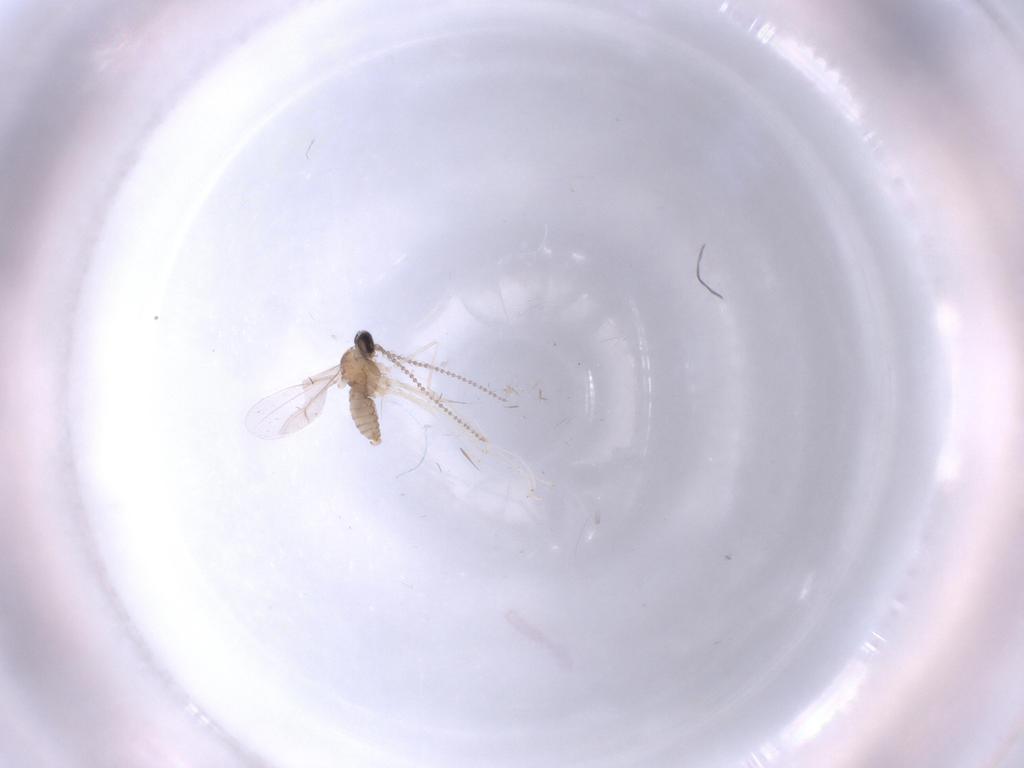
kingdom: Animalia
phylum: Arthropoda
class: Insecta
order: Diptera
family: Cecidomyiidae
